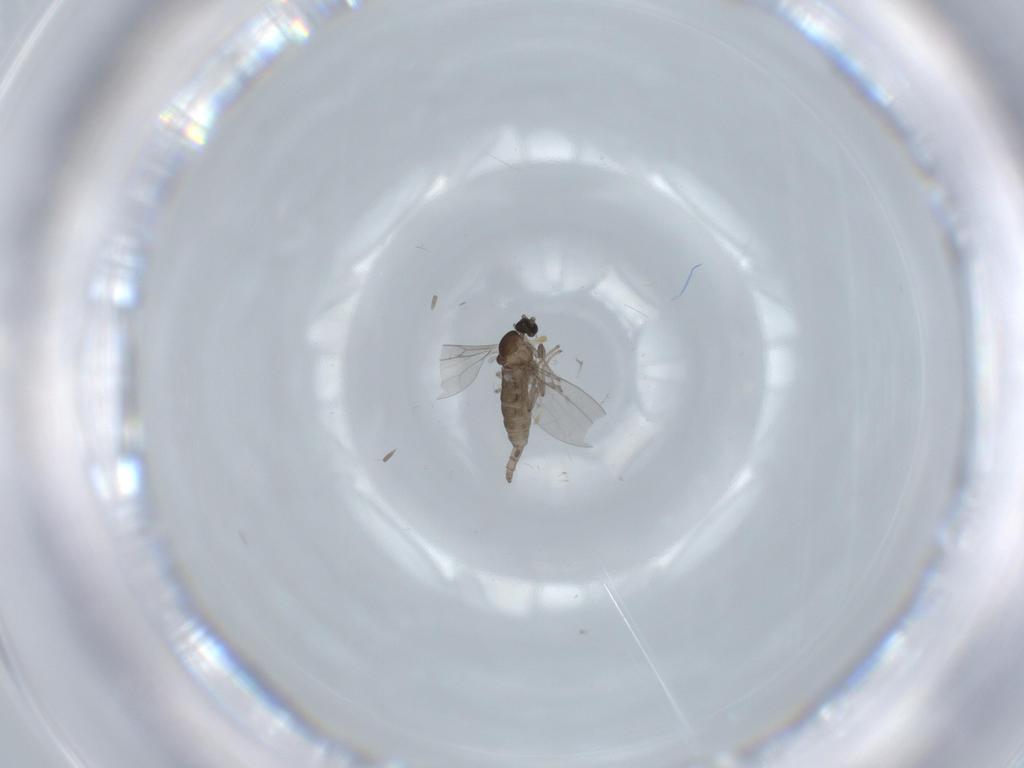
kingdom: Animalia
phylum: Arthropoda
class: Insecta
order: Diptera
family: Cecidomyiidae
